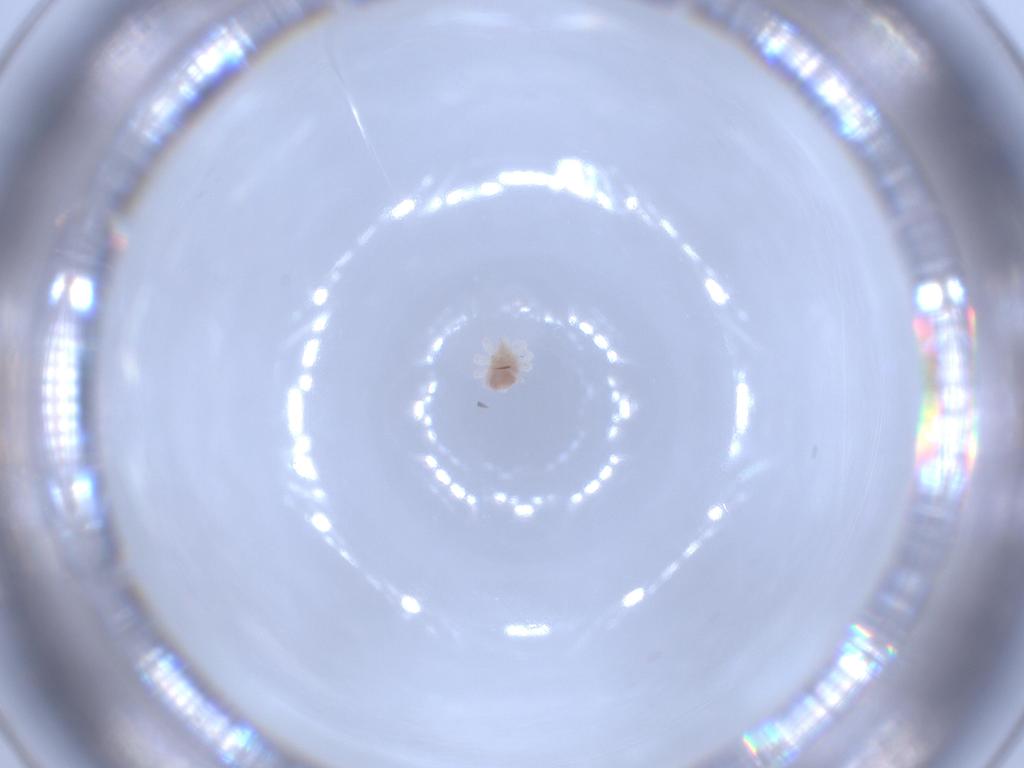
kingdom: Animalia
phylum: Arthropoda
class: Arachnida
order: Trombidiformes
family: Anystidae
